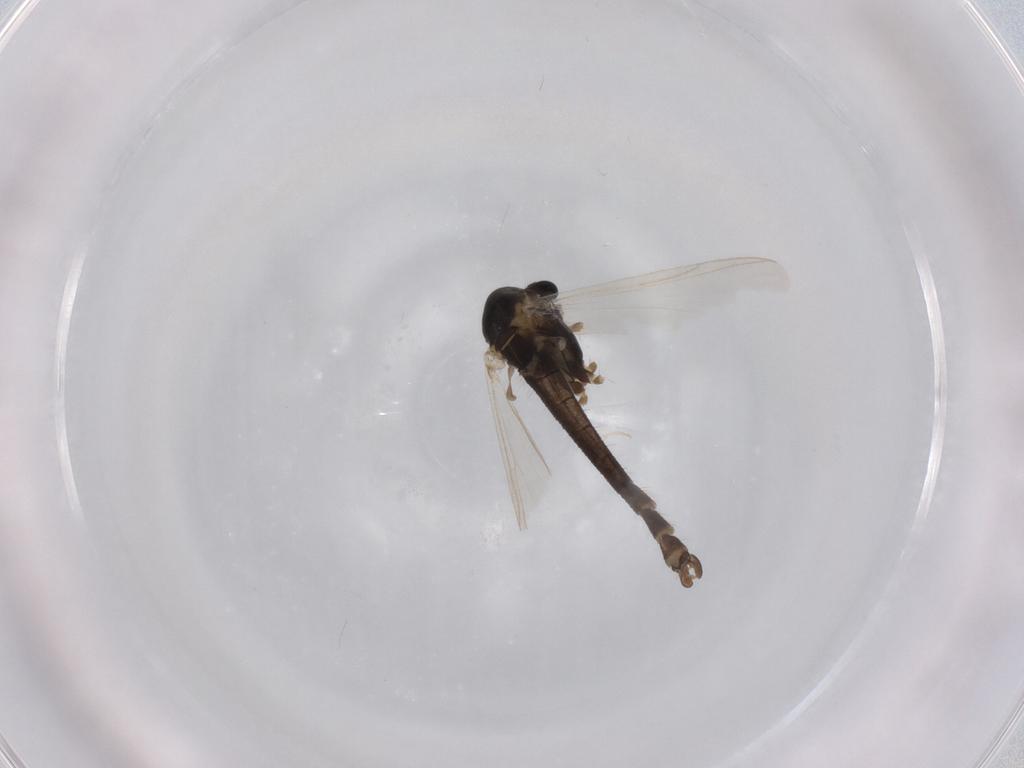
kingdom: Animalia
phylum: Arthropoda
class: Insecta
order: Diptera
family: Chironomidae
